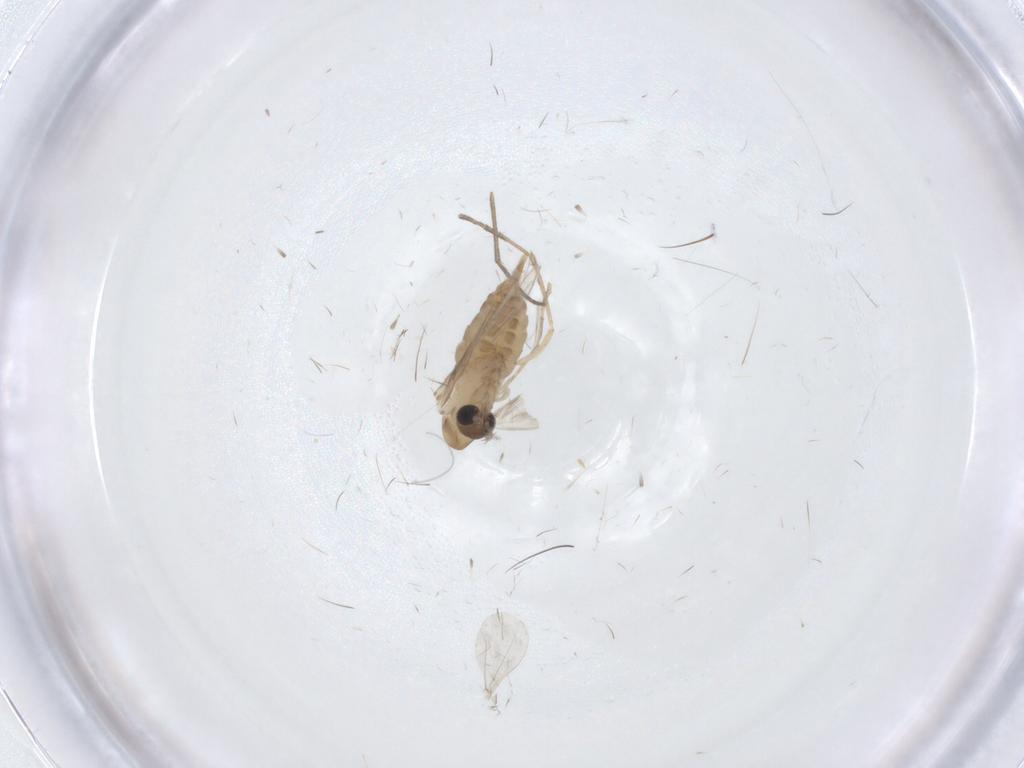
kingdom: Animalia
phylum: Arthropoda
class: Insecta
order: Diptera
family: Psychodidae
